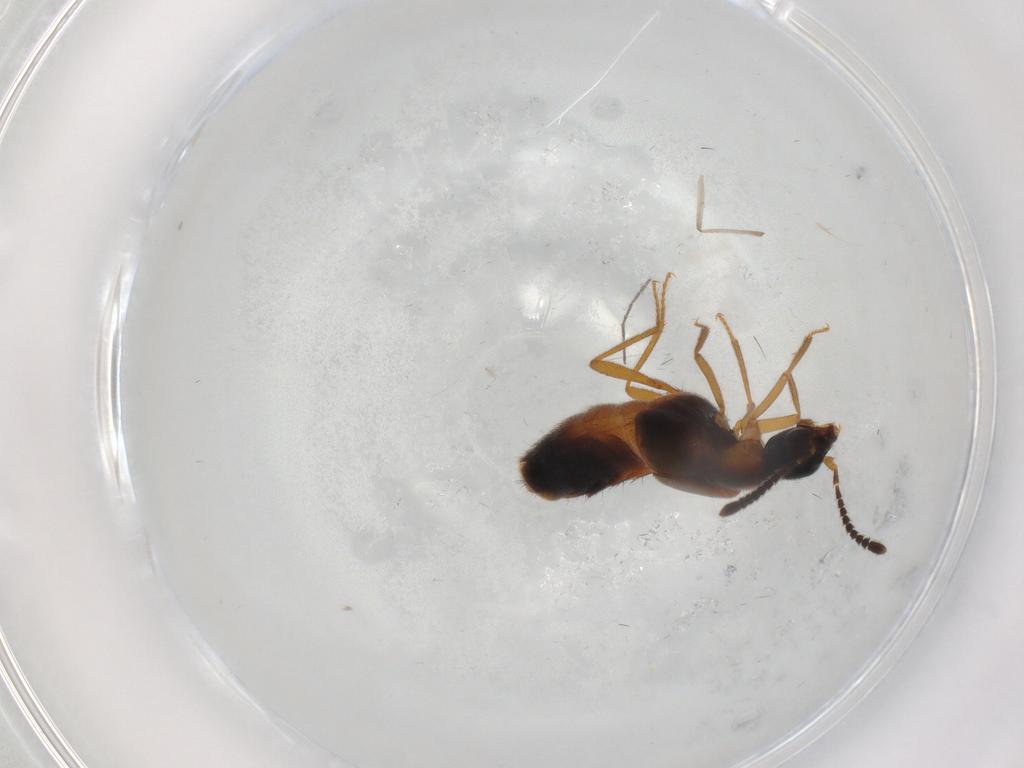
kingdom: Animalia
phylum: Arthropoda
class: Insecta
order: Coleoptera
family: Staphylinidae
